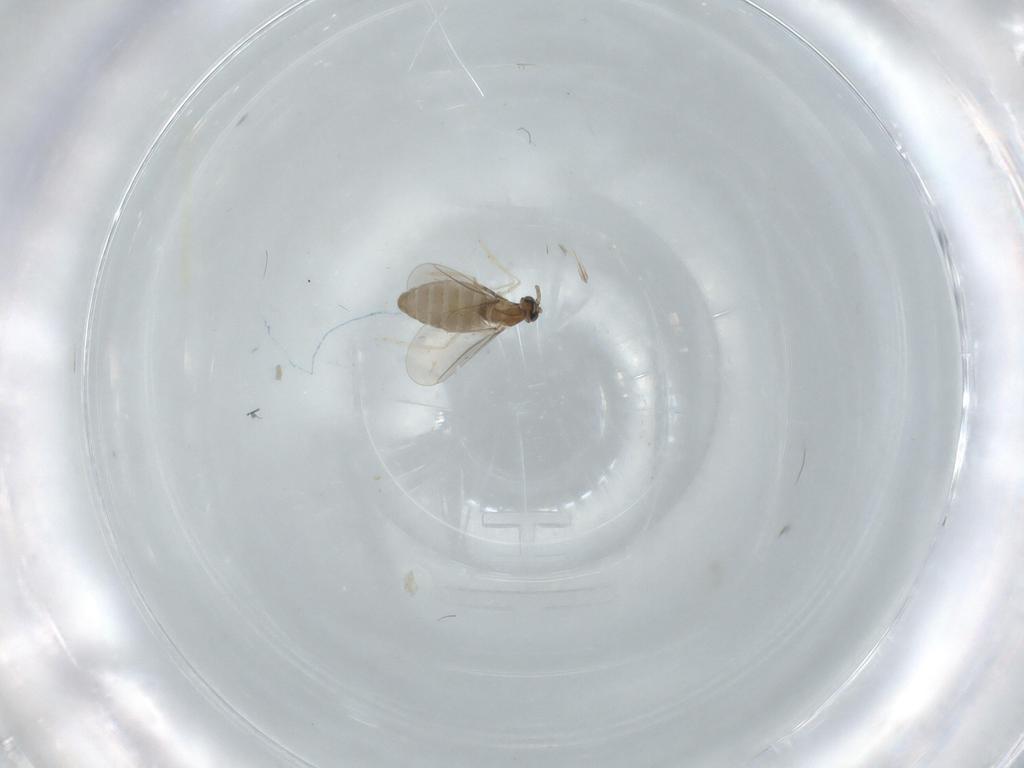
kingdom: Animalia
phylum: Arthropoda
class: Insecta
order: Diptera
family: Cecidomyiidae
